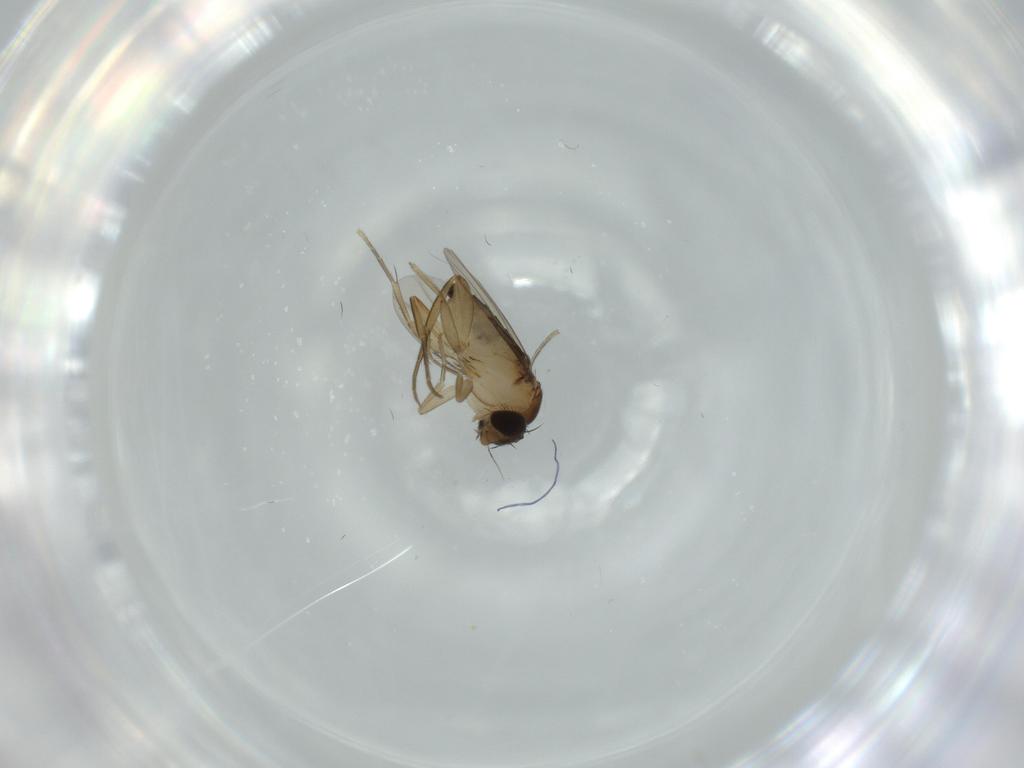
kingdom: Animalia
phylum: Arthropoda
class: Insecta
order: Diptera
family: Phoridae
